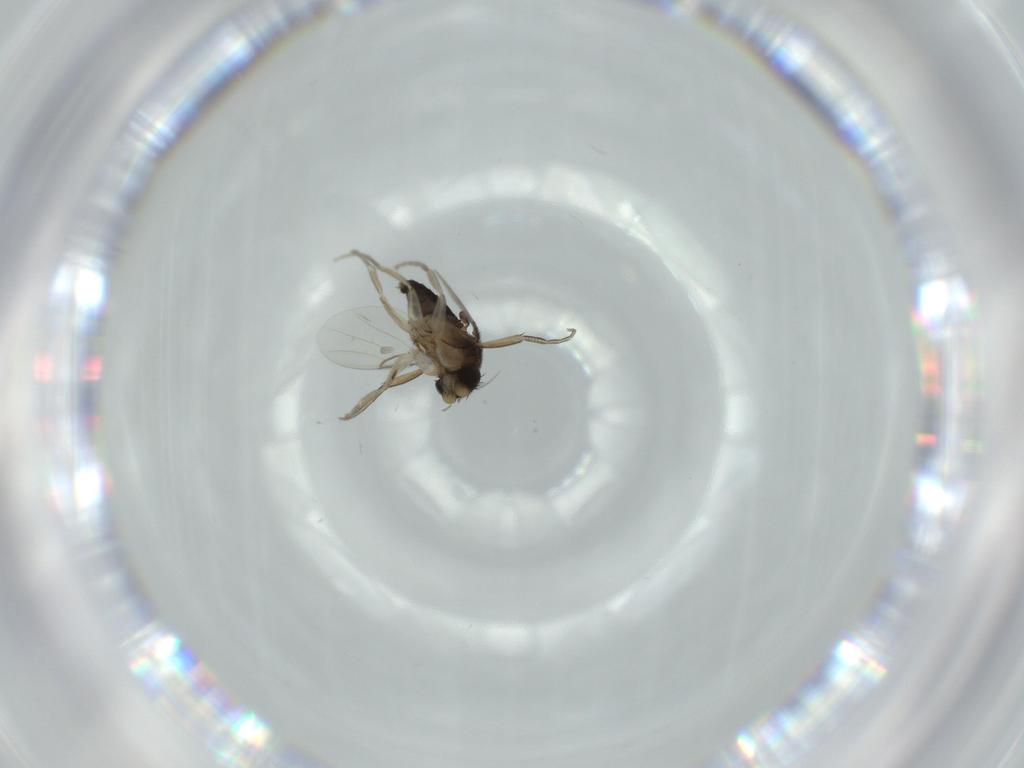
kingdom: Animalia
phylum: Arthropoda
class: Insecta
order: Diptera
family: Phoridae
